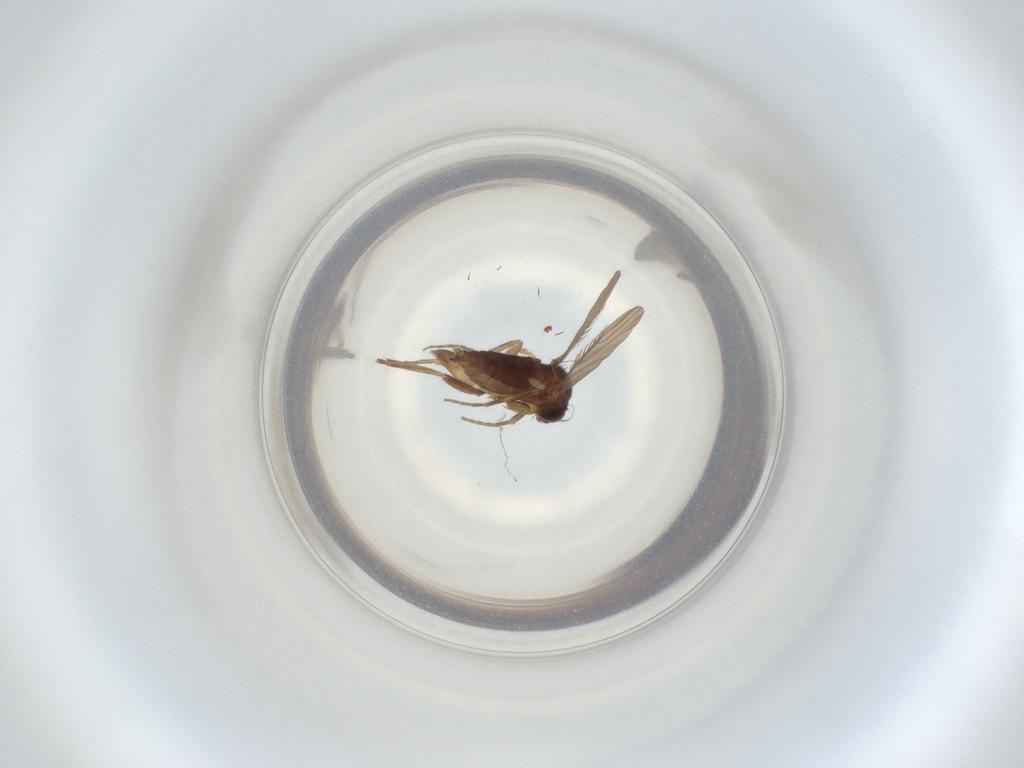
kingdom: Animalia
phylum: Arthropoda
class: Insecta
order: Diptera
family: Phoridae
